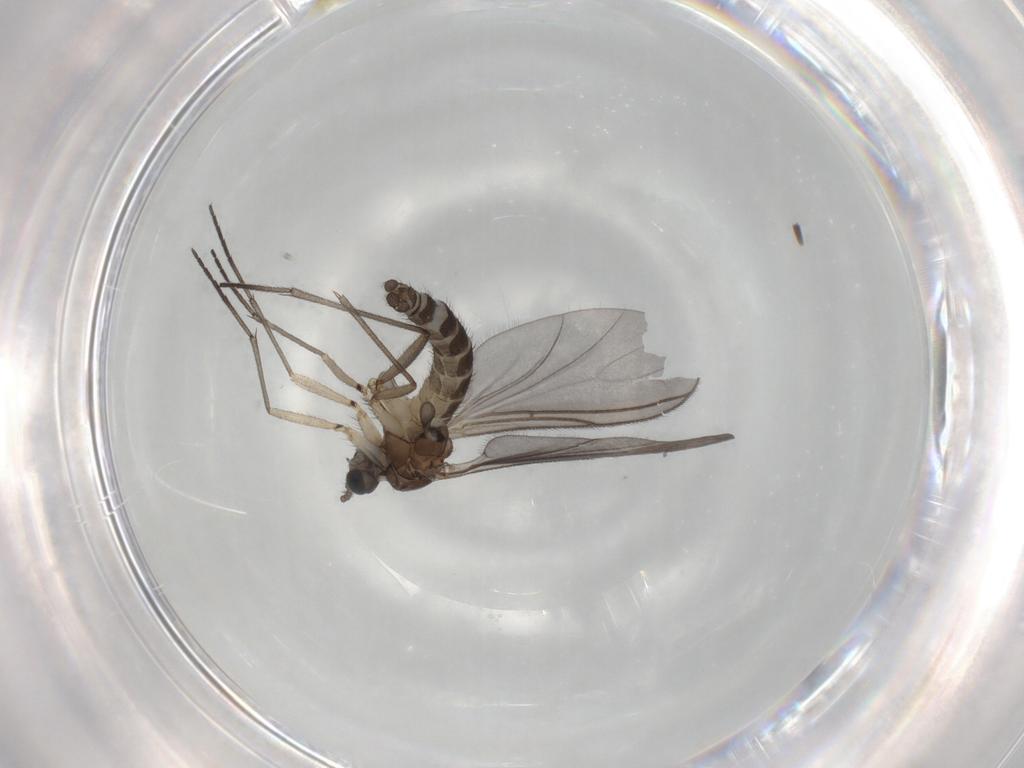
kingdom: Animalia
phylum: Arthropoda
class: Insecta
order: Diptera
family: Sciaridae
